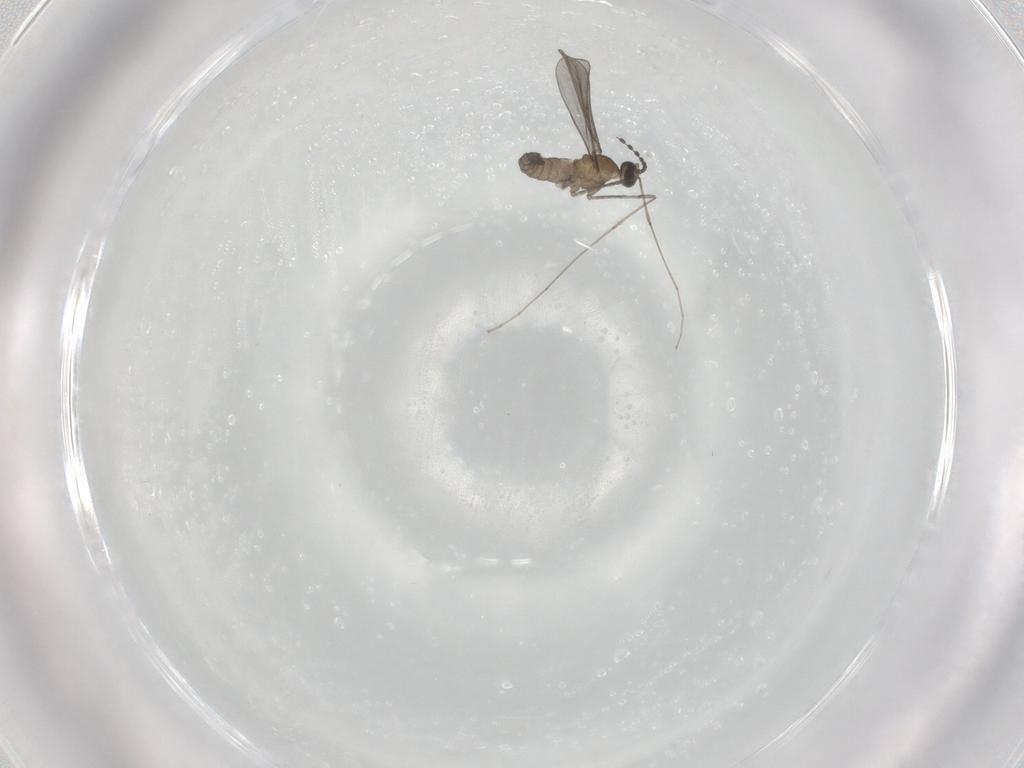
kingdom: Animalia
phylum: Arthropoda
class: Insecta
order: Diptera
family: Cecidomyiidae
